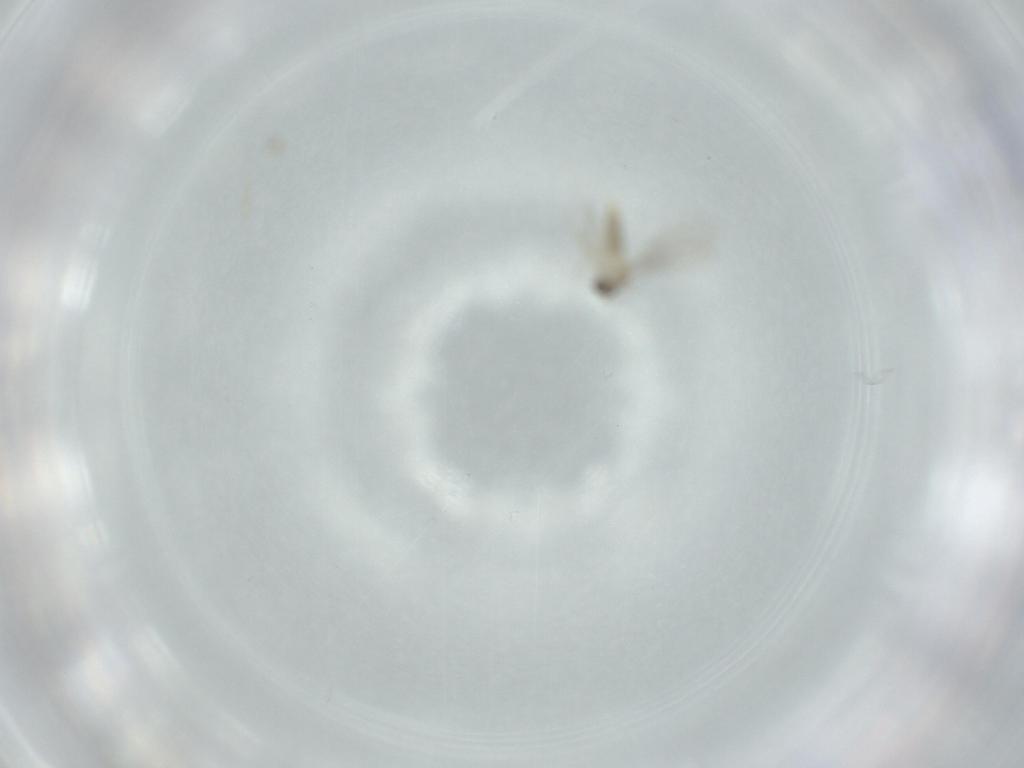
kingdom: Animalia
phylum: Arthropoda
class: Insecta
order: Diptera
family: Cecidomyiidae
